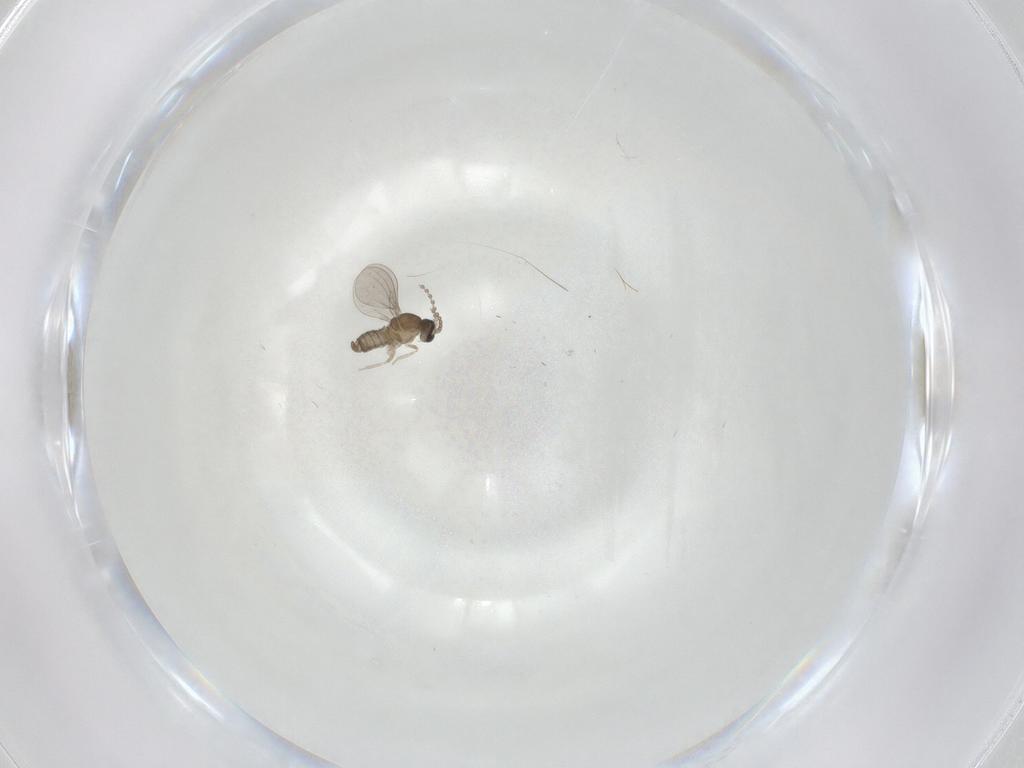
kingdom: Animalia
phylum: Arthropoda
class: Insecta
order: Diptera
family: Cecidomyiidae
